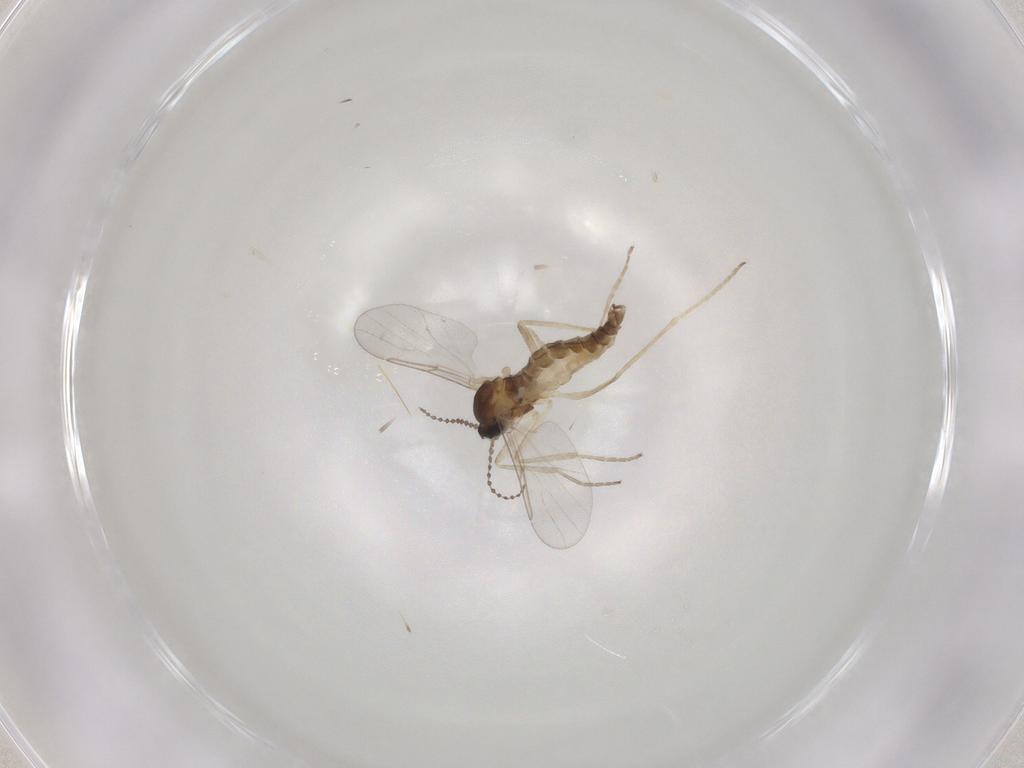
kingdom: Animalia
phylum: Arthropoda
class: Insecta
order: Diptera
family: Cecidomyiidae
